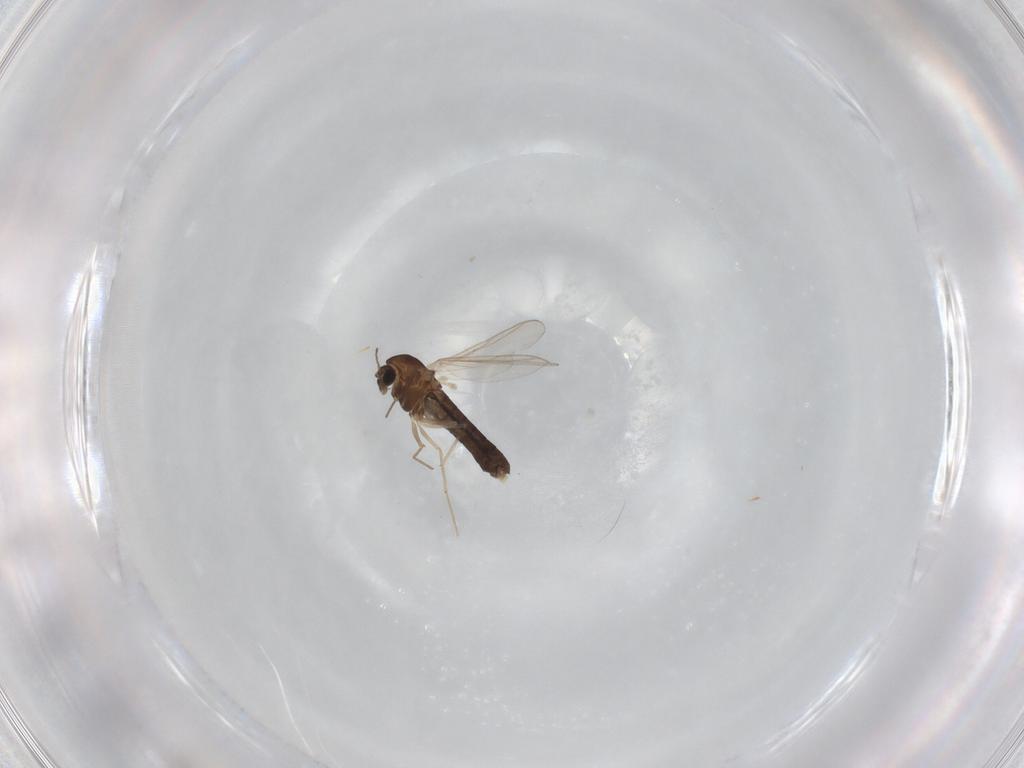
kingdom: Animalia
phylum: Arthropoda
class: Insecta
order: Diptera
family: Chironomidae
